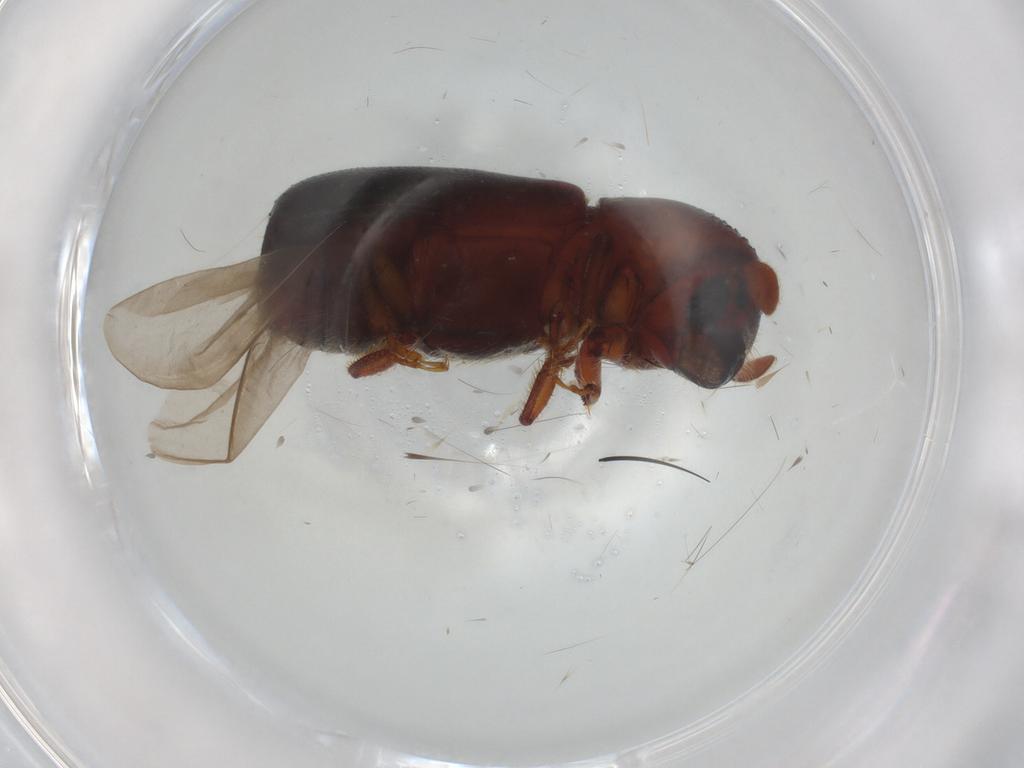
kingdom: Animalia
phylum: Arthropoda
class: Insecta
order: Coleoptera
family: Curculionidae
